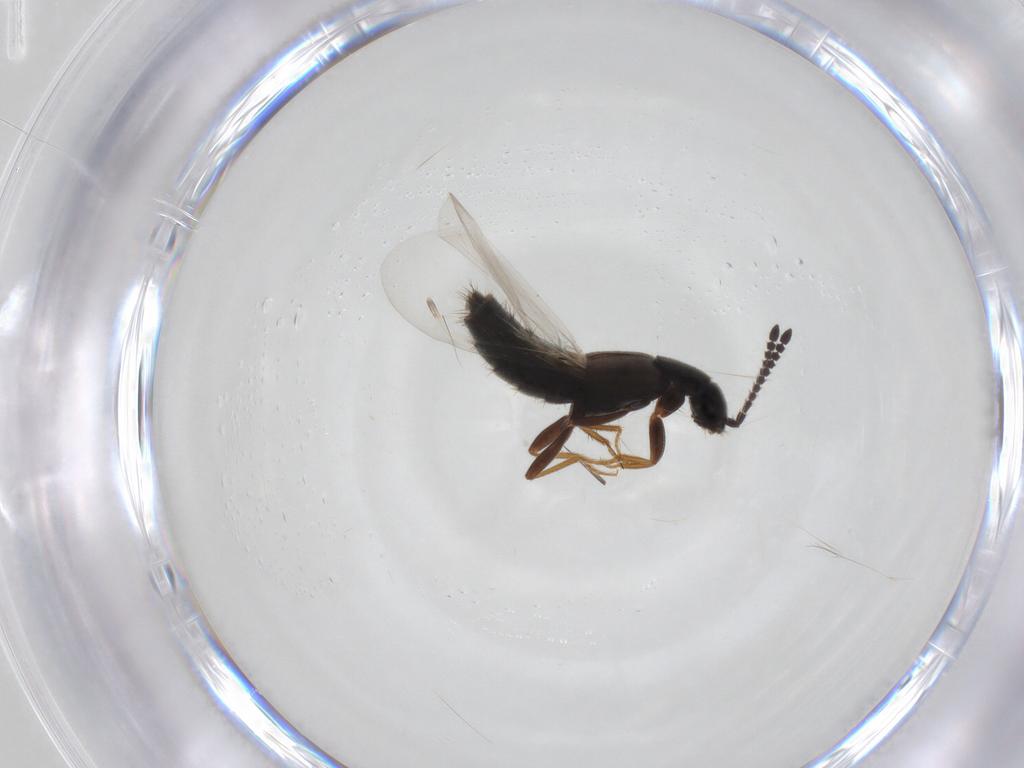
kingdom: Animalia
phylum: Arthropoda
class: Insecta
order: Coleoptera
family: Staphylinidae
